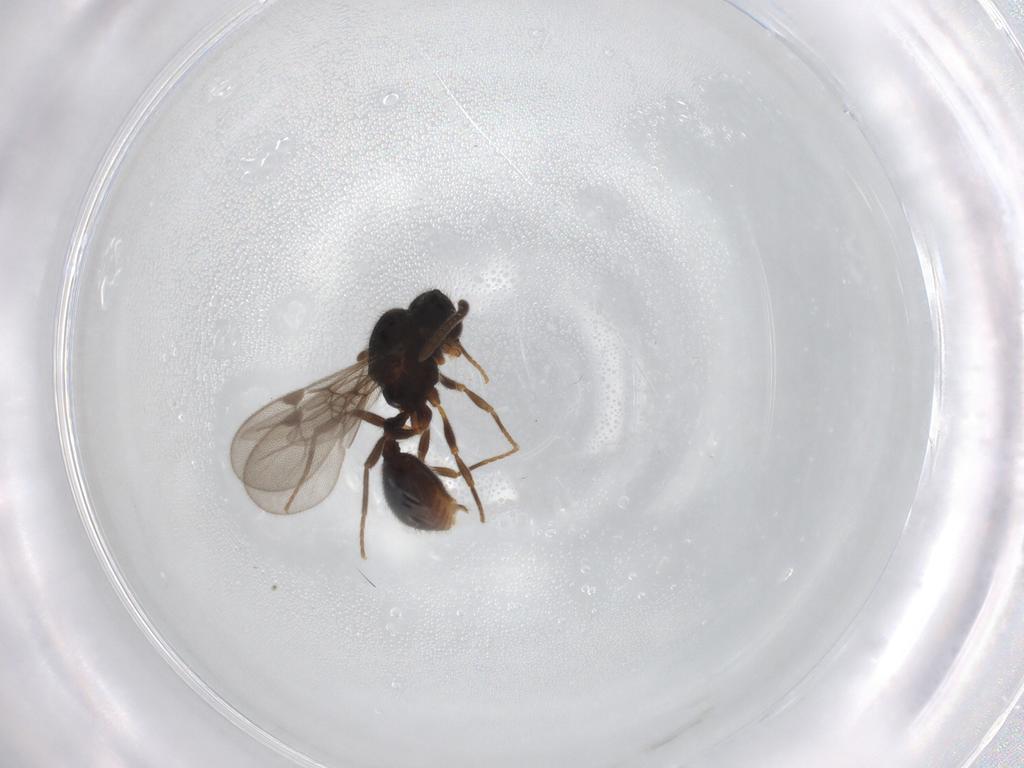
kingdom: Animalia
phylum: Arthropoda
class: Insecta
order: Hymenoptera
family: Formicidae
